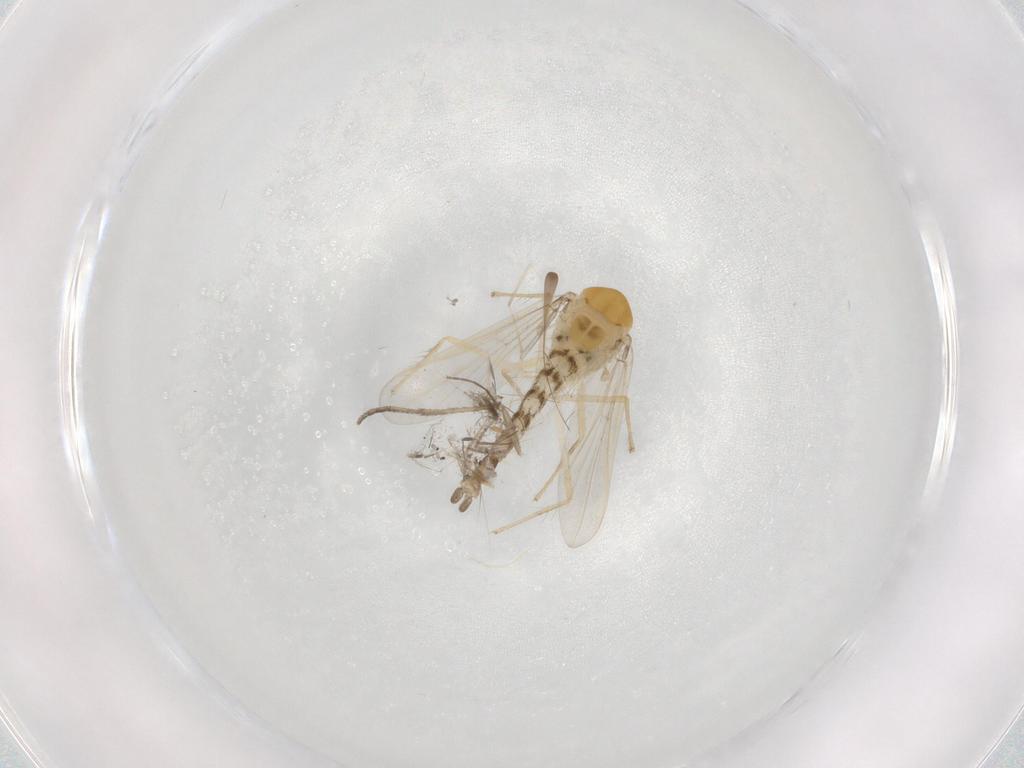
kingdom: Animalia
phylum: Arthropoda
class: Insecta
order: Diptera
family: Chironomidae
